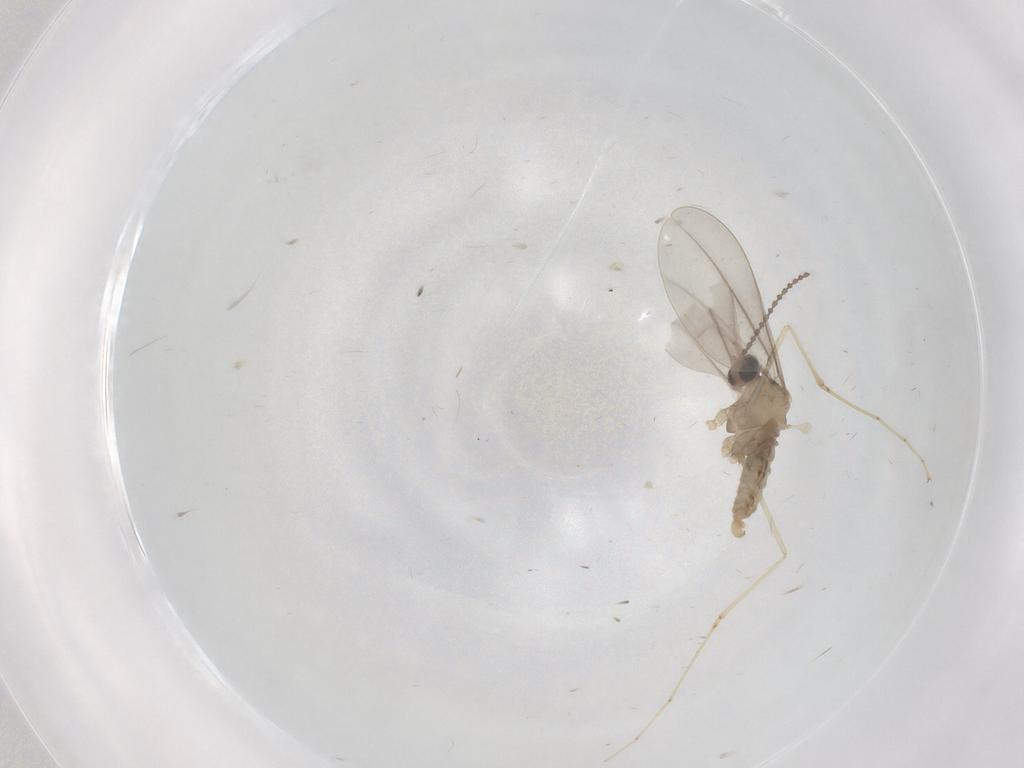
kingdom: Animalia
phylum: Arthropoda
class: Insecta
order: Diptera
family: Cecidomyiidae
